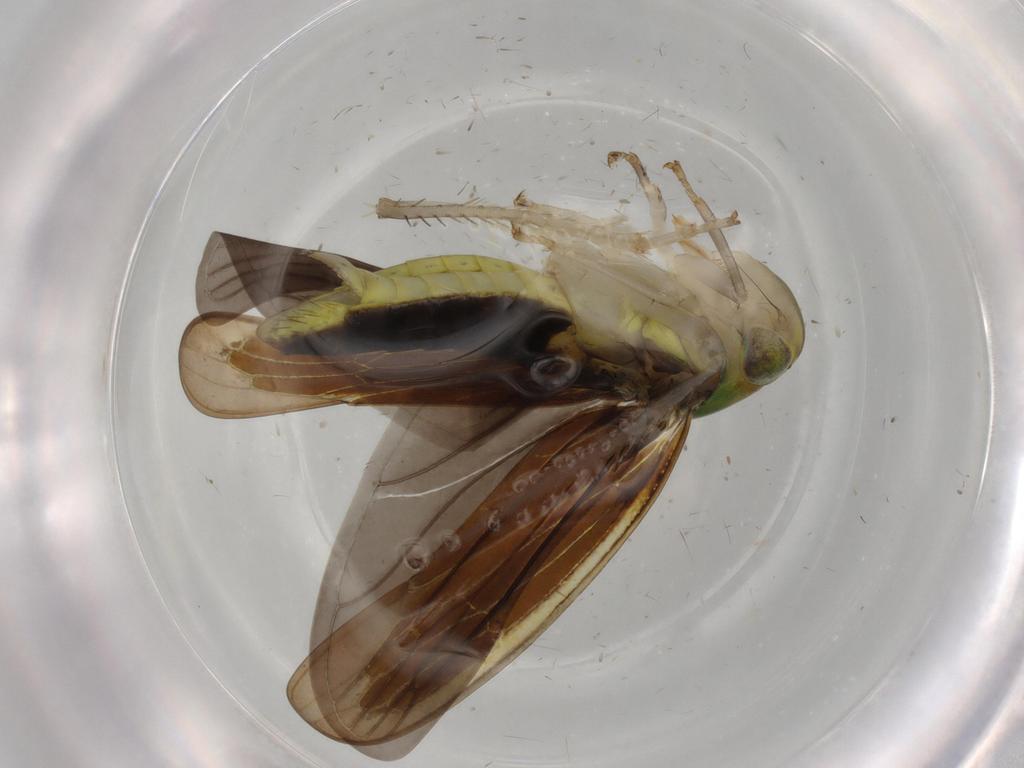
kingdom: Animalia
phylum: Arthropoda
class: Insecta
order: Hemiptera
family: Cicadellidae
